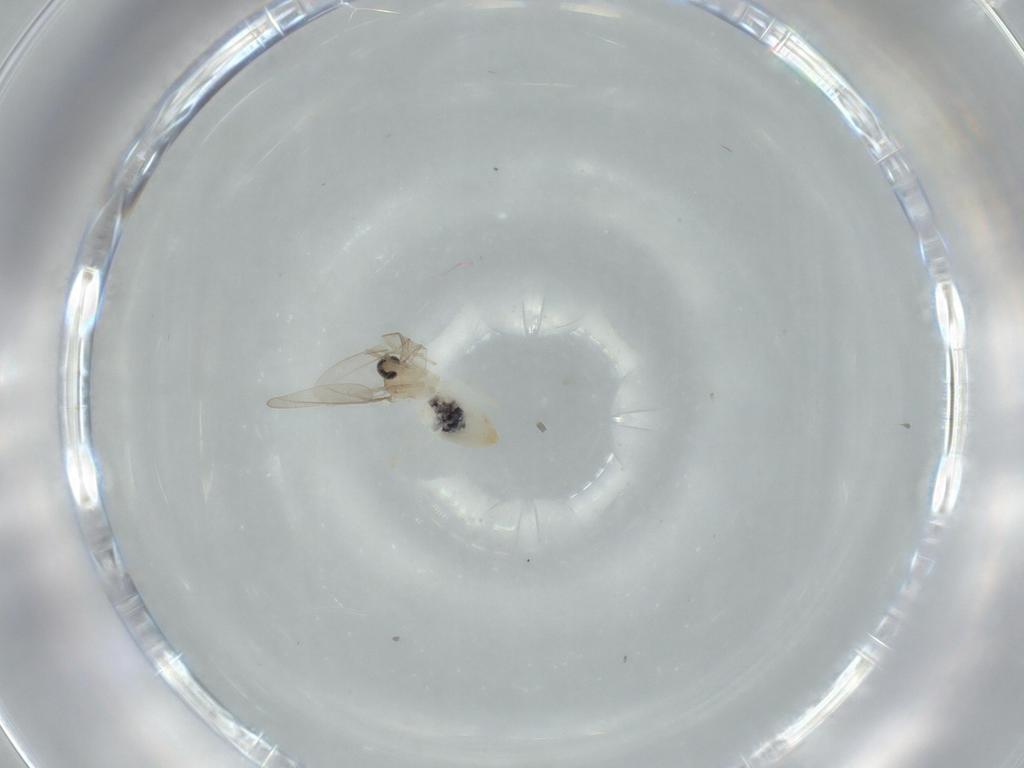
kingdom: Animalia
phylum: Arthropoda
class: Insecta
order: Diptera
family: Cecidomyiidae
